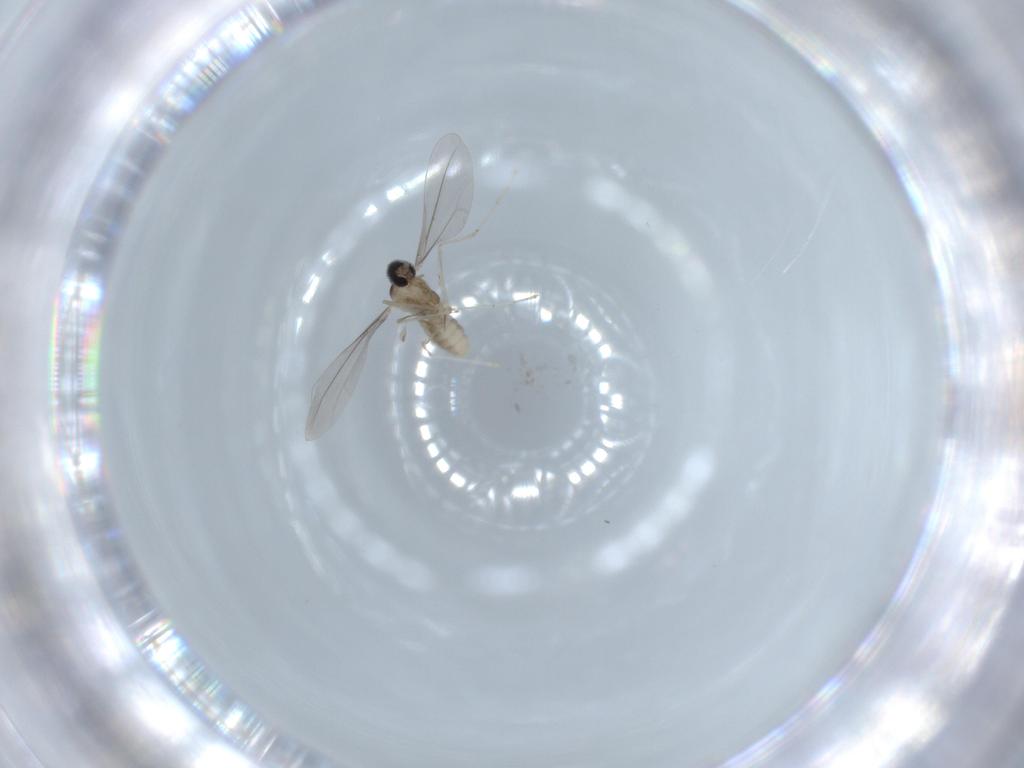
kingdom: Animalia
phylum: Arthropoda
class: Insecta
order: Diptera
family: Cecidomyiidae
